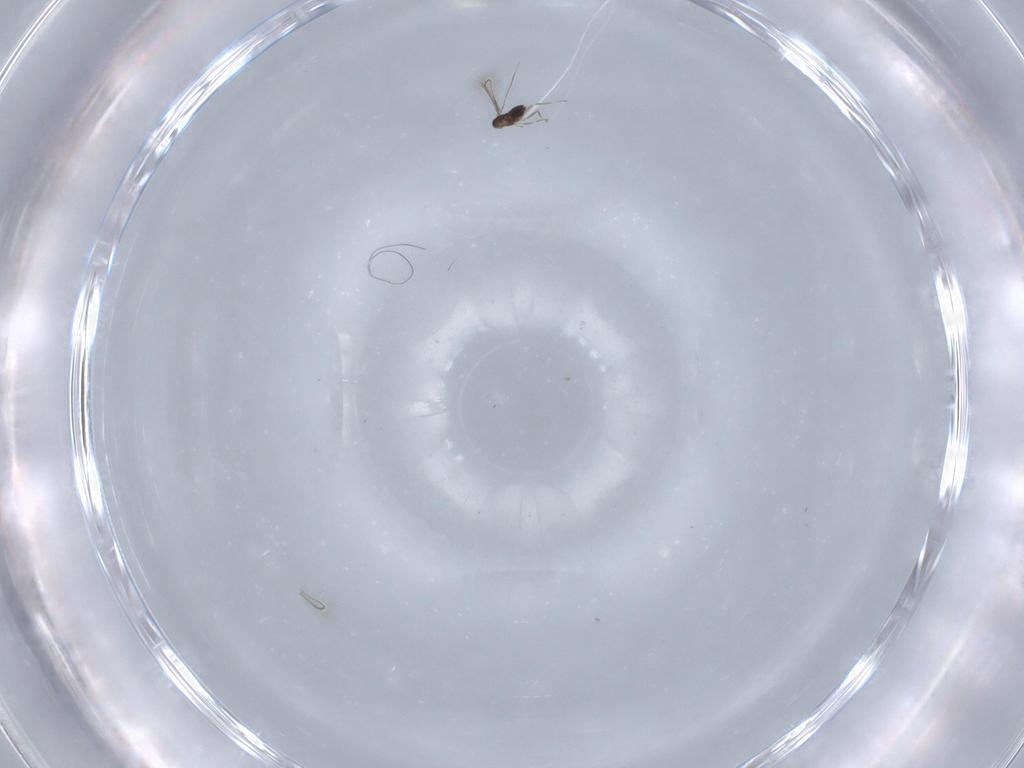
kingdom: Animalia
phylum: Arthropoda
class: Insecta
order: Hymenoptera
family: Mymaridae
